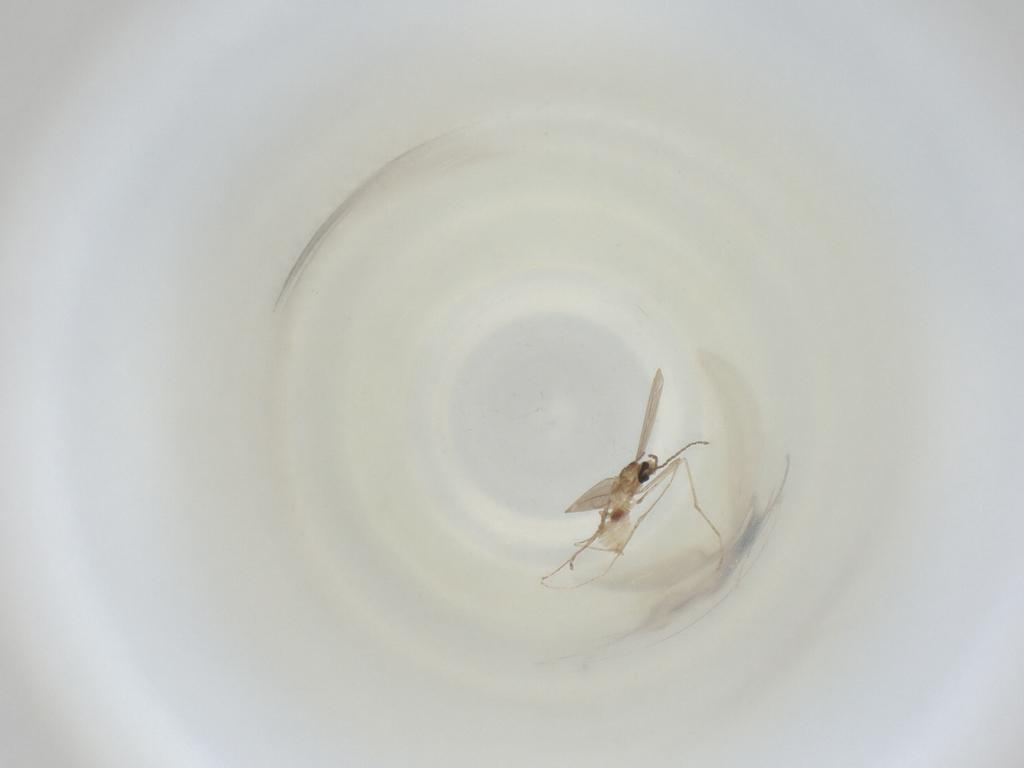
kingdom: Animalia
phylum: Arthropoda
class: Insecta
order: Diptera
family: Cecidomyiidae
